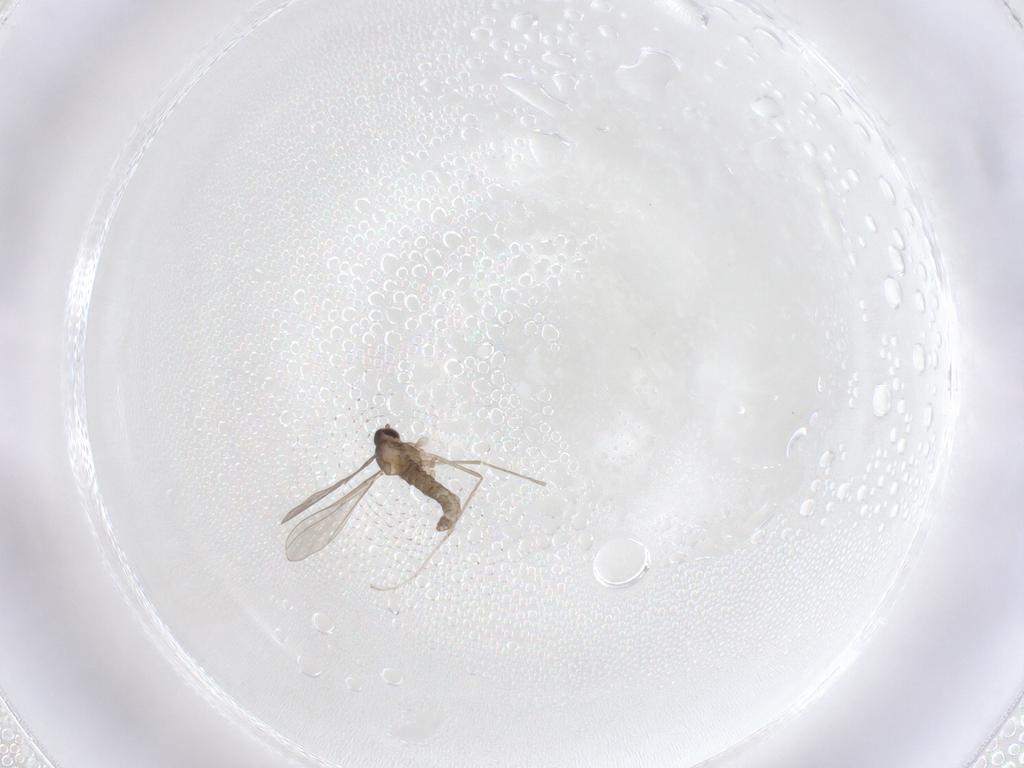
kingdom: Animalia
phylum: Arthropoda
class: Insecta
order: Diptera
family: Cecidomyiidae
